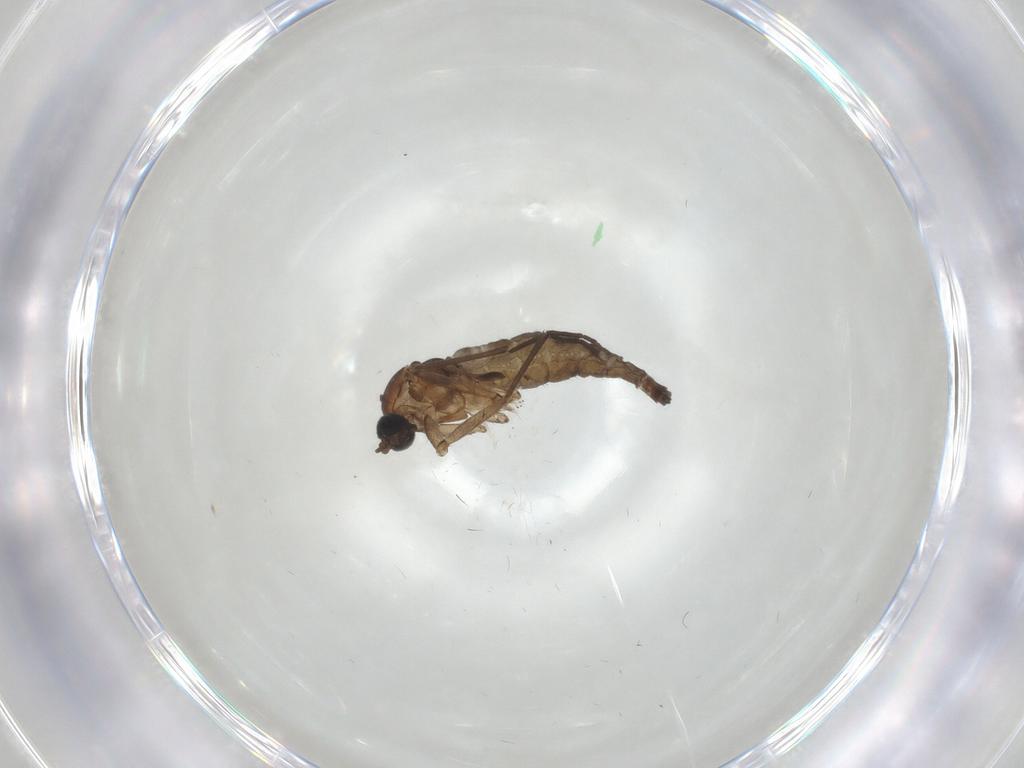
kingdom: Animalia
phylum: Arthropoda
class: Insecta
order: Diptera
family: Cecidomyiidae
